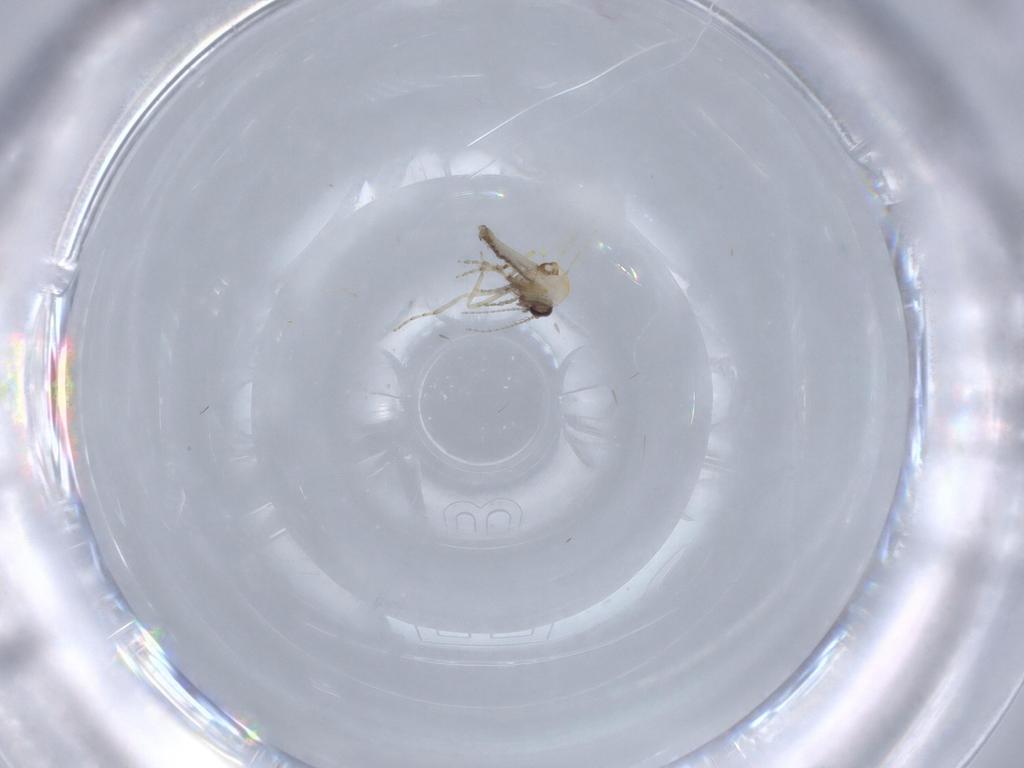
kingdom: Animalia
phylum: Arthropoda
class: Insecta
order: Diptera
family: Ceratopogonidae
